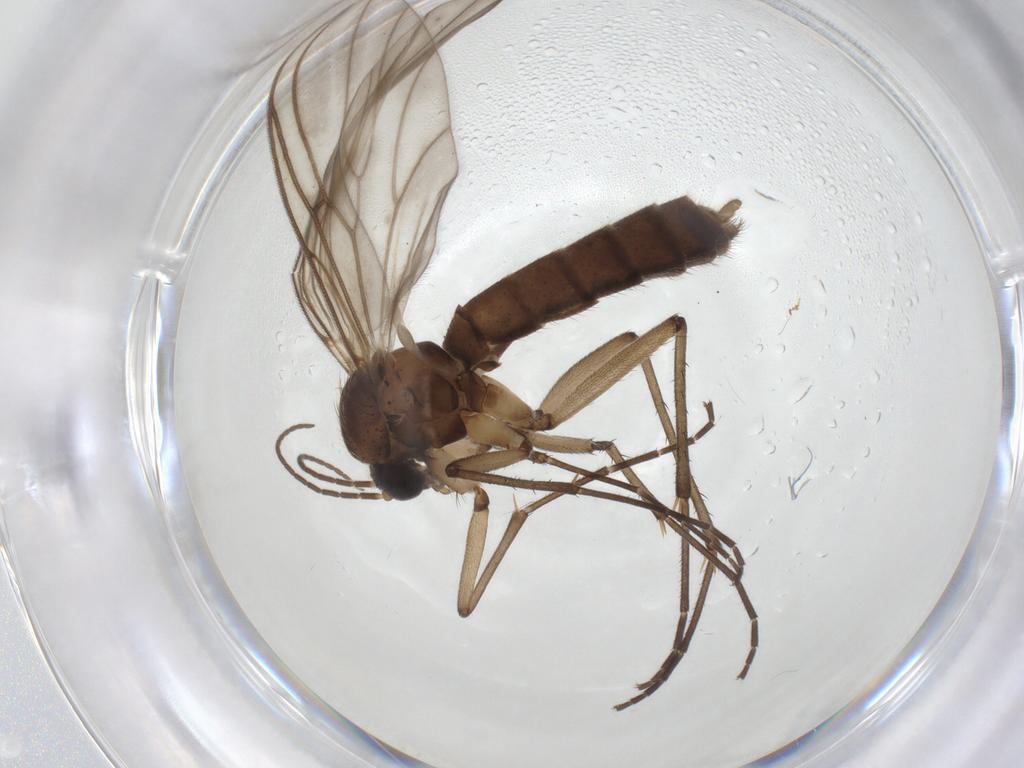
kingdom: Animalia
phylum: Arthropoda
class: Insecta
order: Diptera
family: Mycetophilidae
